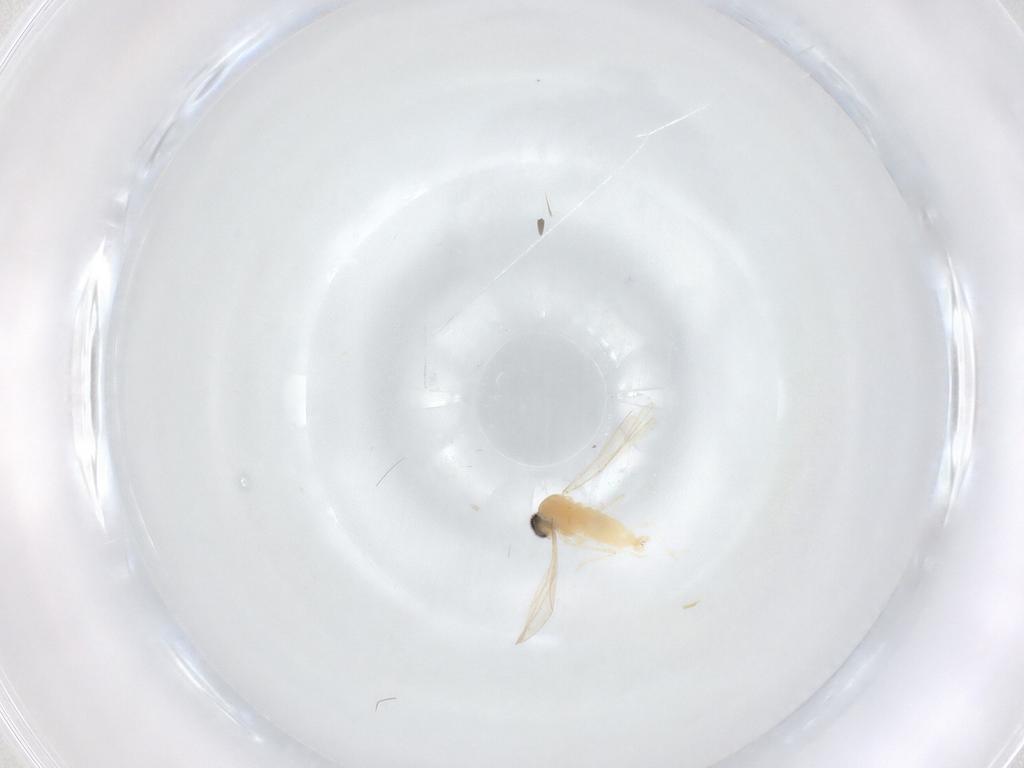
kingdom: Animalia
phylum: Arthropoda
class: Insecta
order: Diptera
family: Cecidomyiidae
